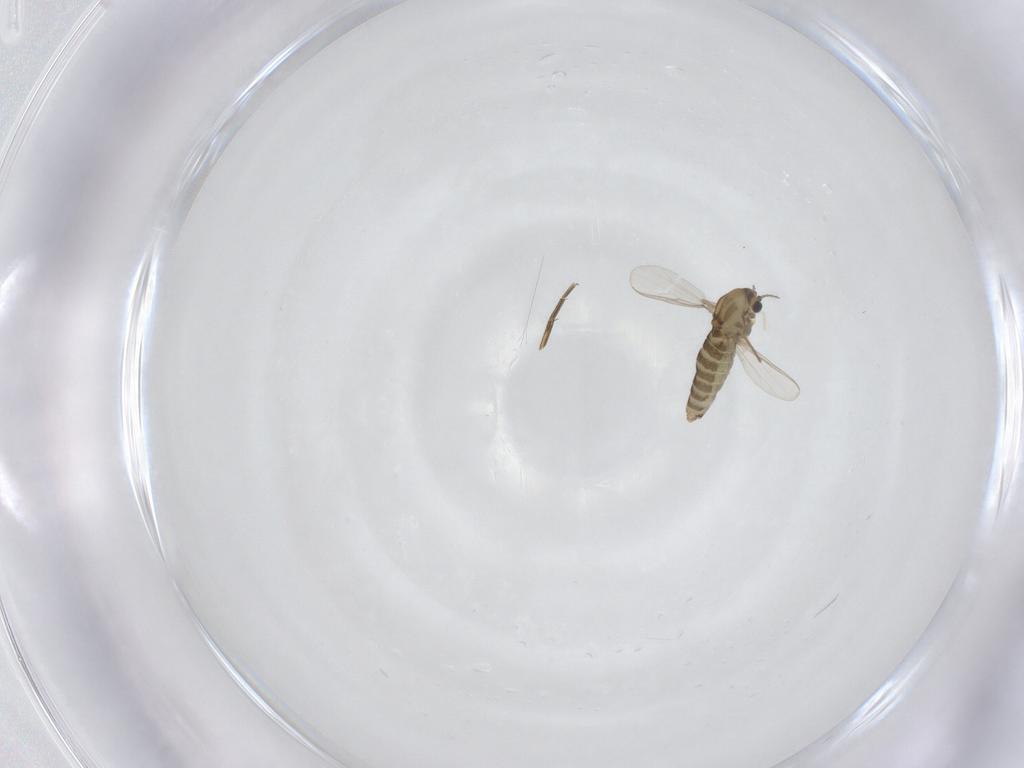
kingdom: Animalia
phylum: Arthropoda
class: Insecta
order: Diptera
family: Chironomidae
